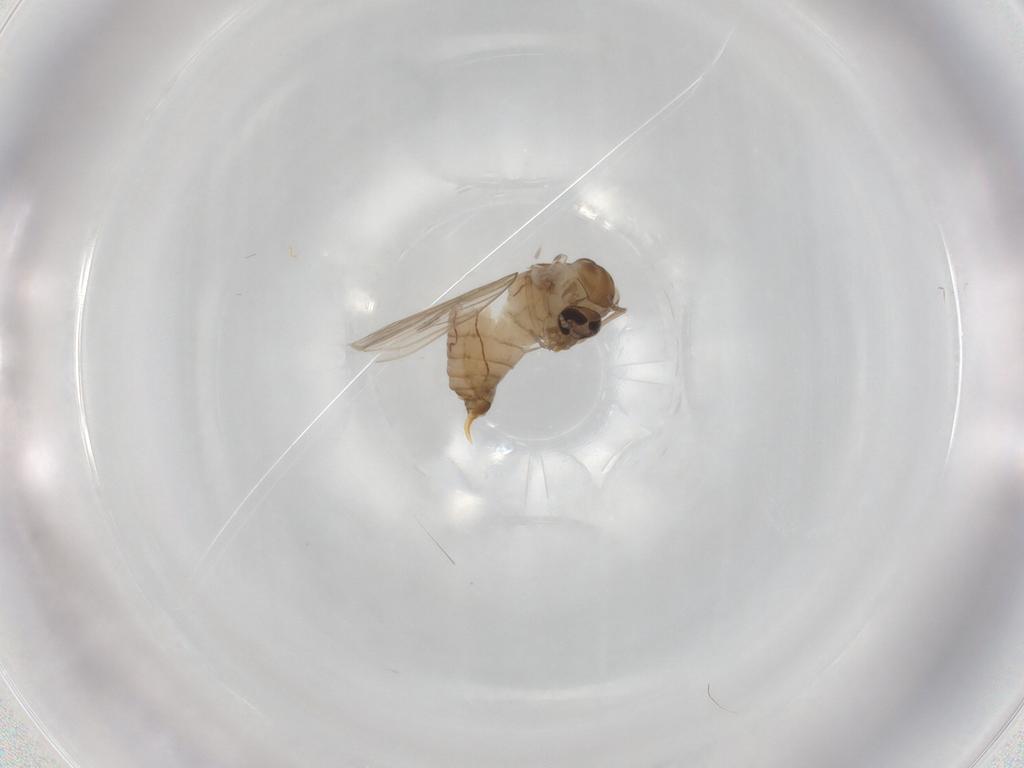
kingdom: Animalia
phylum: Arthropoda
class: Insecta
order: Diptera
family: Psychodidae
